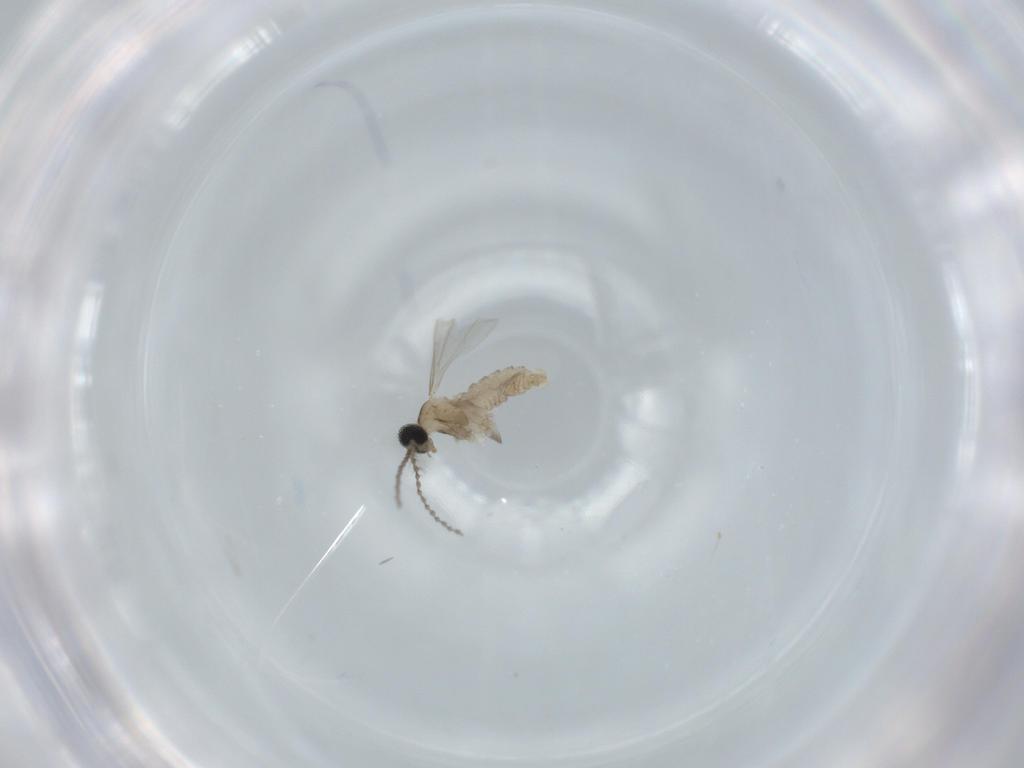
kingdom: Animalia
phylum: Arthropoda
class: Insecta
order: Diptera
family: Cecidomyiidae
